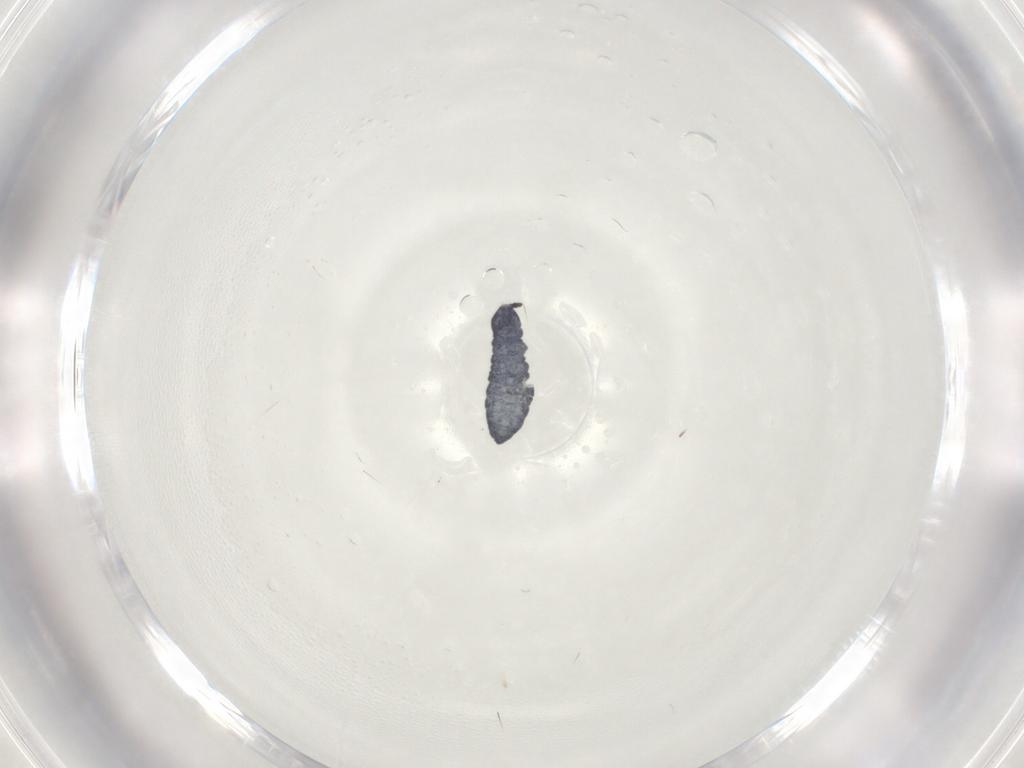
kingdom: Animalia
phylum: Arthropoda
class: Collembola
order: Poduromorpha
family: Hypogastruridae
